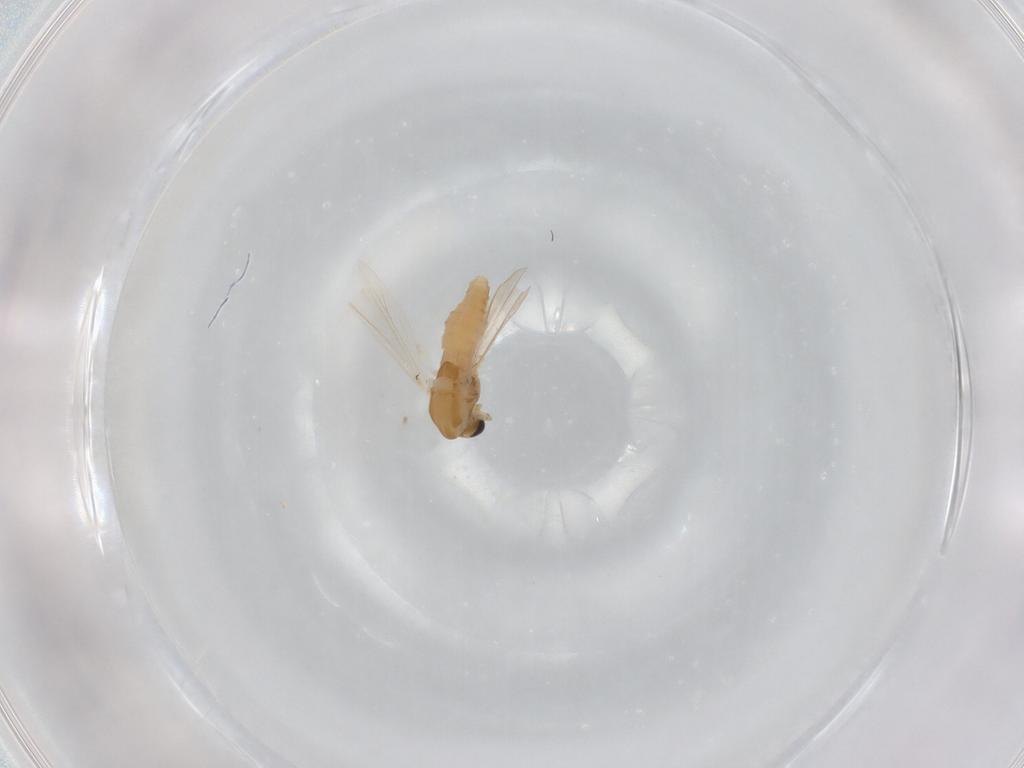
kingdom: Animalia
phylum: Arthropoda
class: Insecta
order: Diptera
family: Chironomidae
